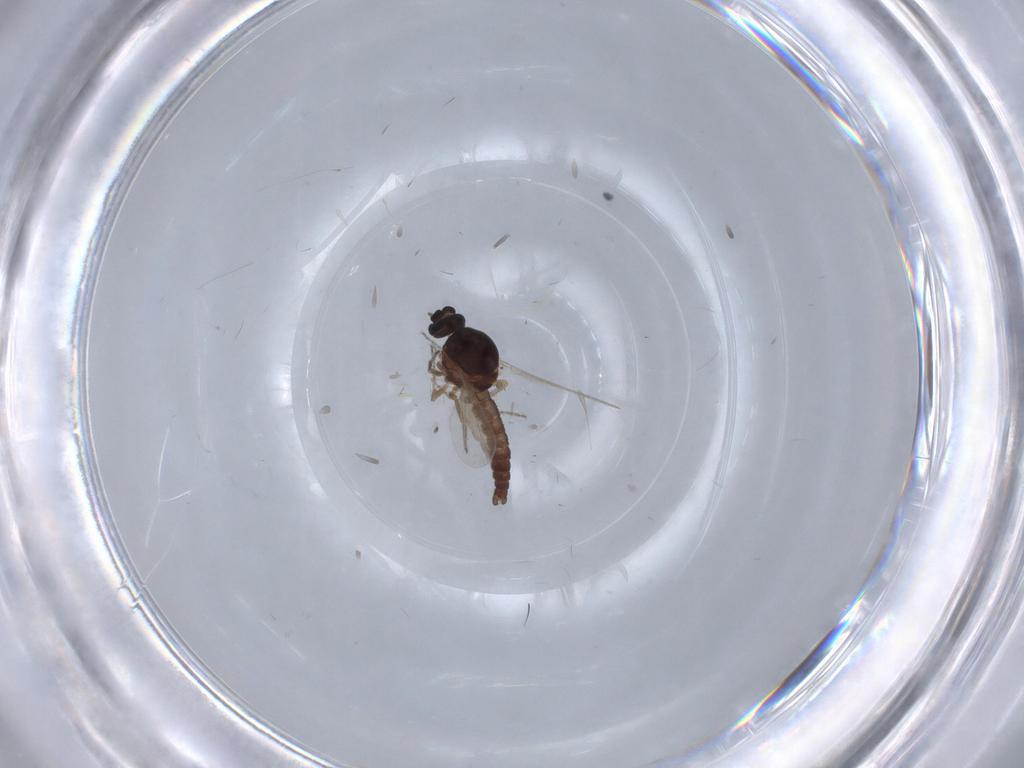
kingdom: Animalia
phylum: Arthropoda
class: Insecta
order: Diptera
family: Ceratopogonidae
